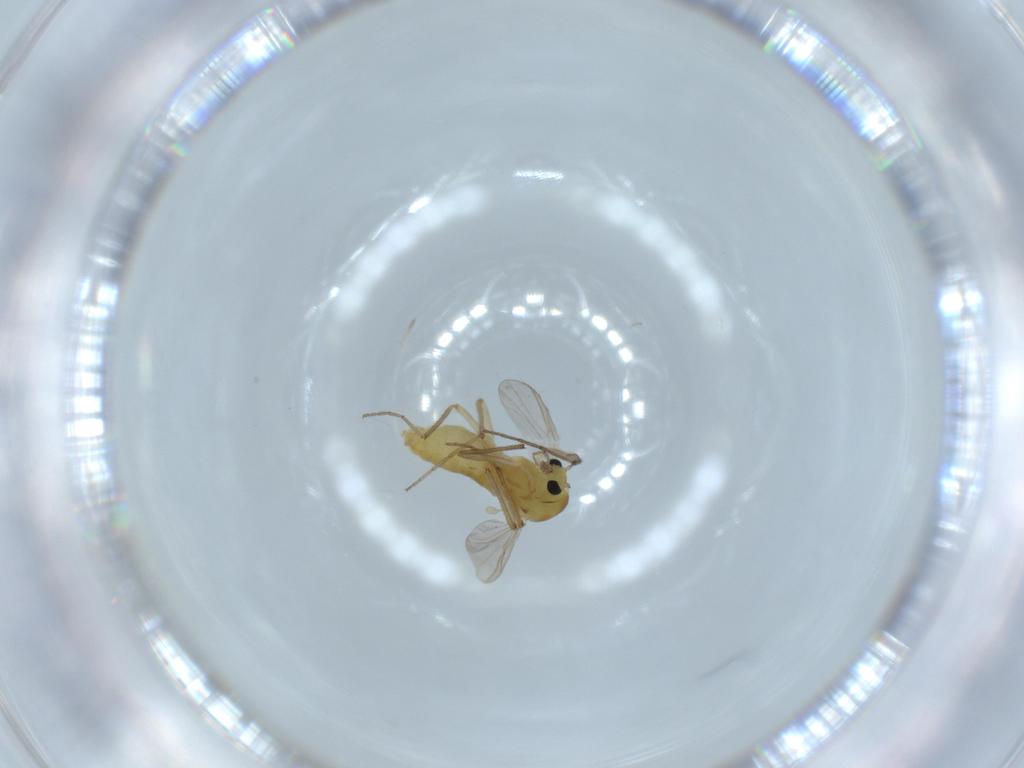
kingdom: Animalia
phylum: Arthropoda
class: Insecta
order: Diptera
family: Chironomidae
